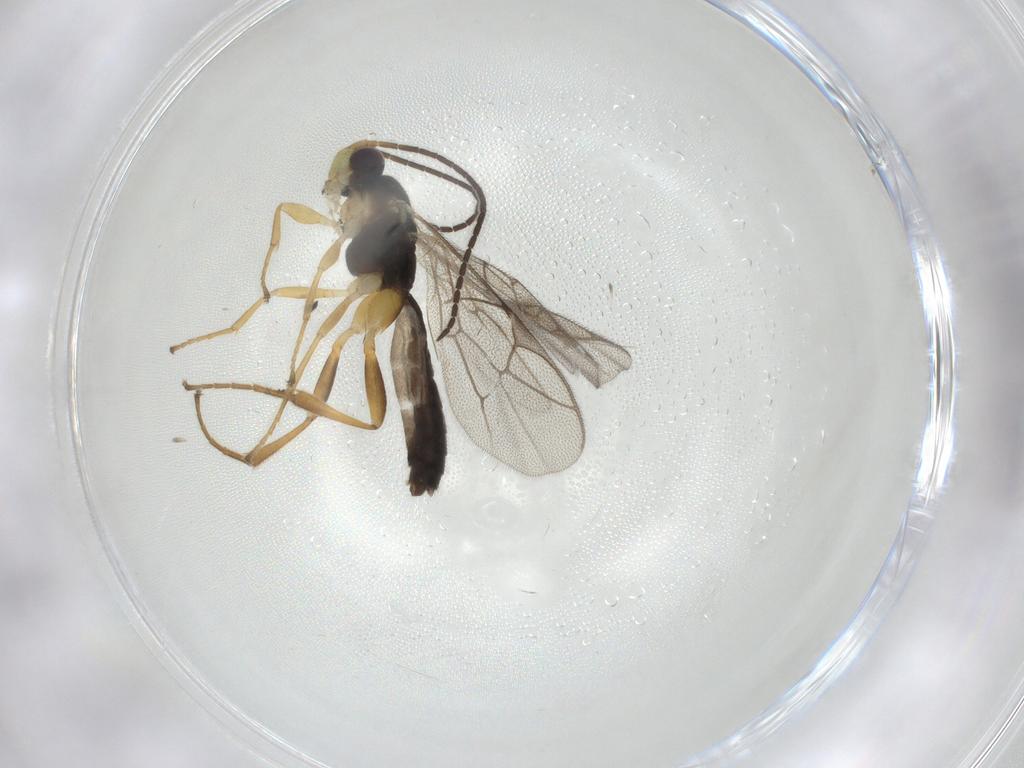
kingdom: Animalia
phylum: Arthropoda
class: Insecta
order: Hymenoptera
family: Ichneumonidae
